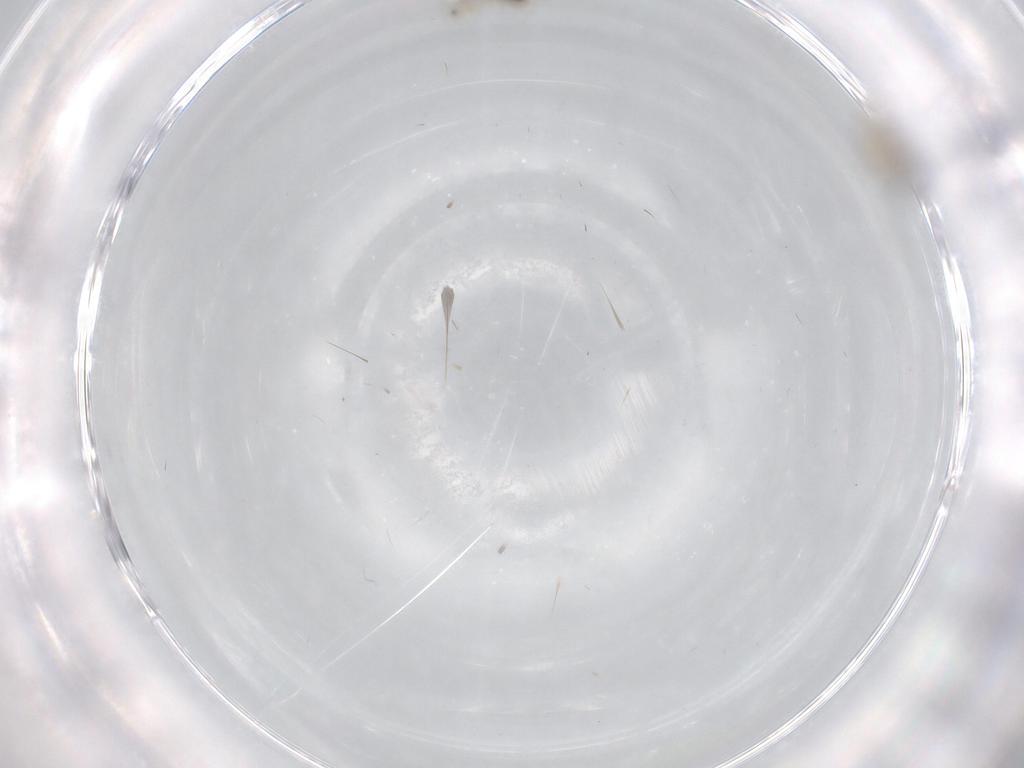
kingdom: Animalia
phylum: Arthropoda
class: Insecta
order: Diptera
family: Sciaridae
